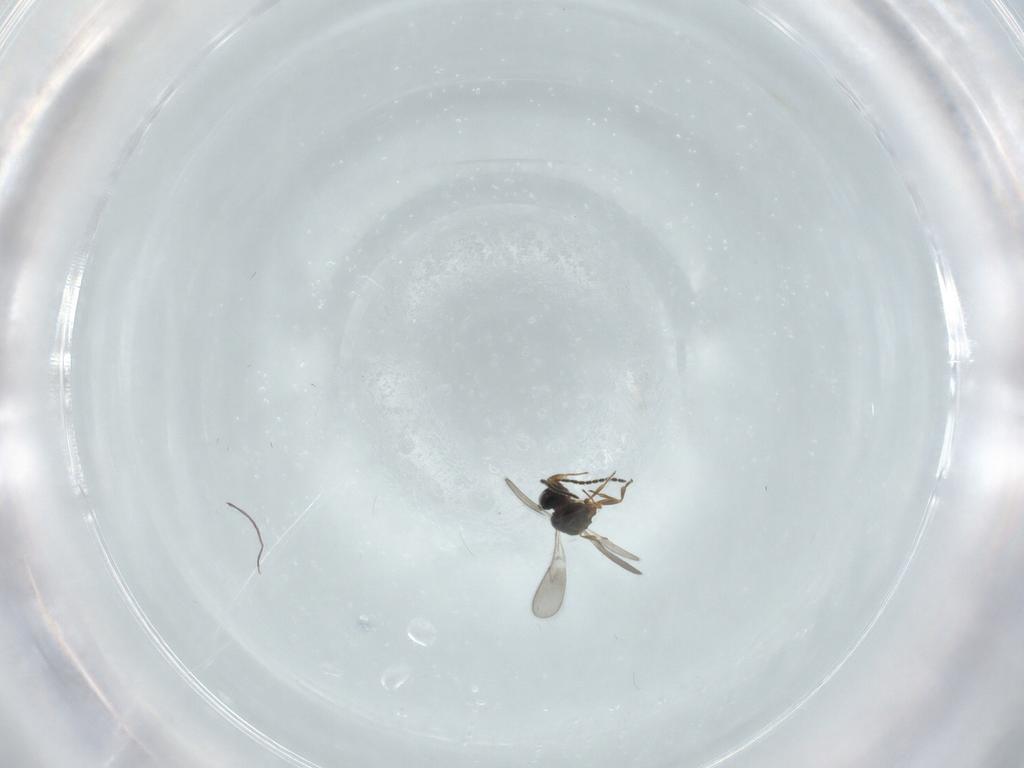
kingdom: Animalia
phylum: Arthropoda
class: Insecta
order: Hymenoptera
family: Scelionidae
